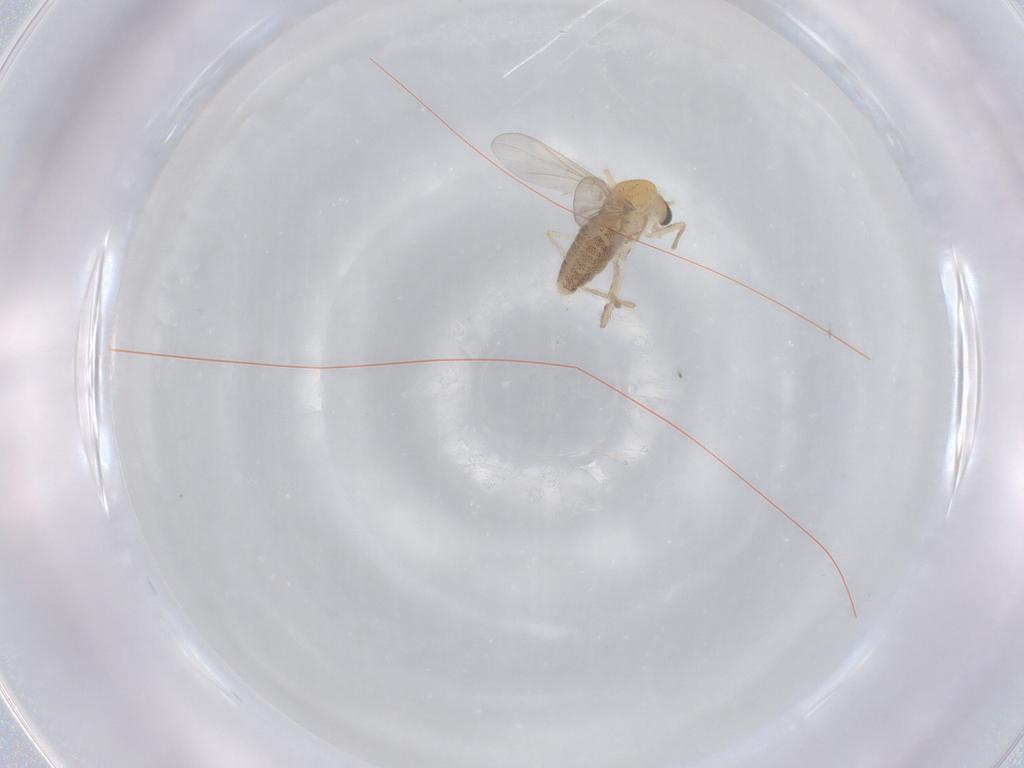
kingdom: Animalia
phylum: Arthropoda
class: Insecta
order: Diptera
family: Chironomidae
